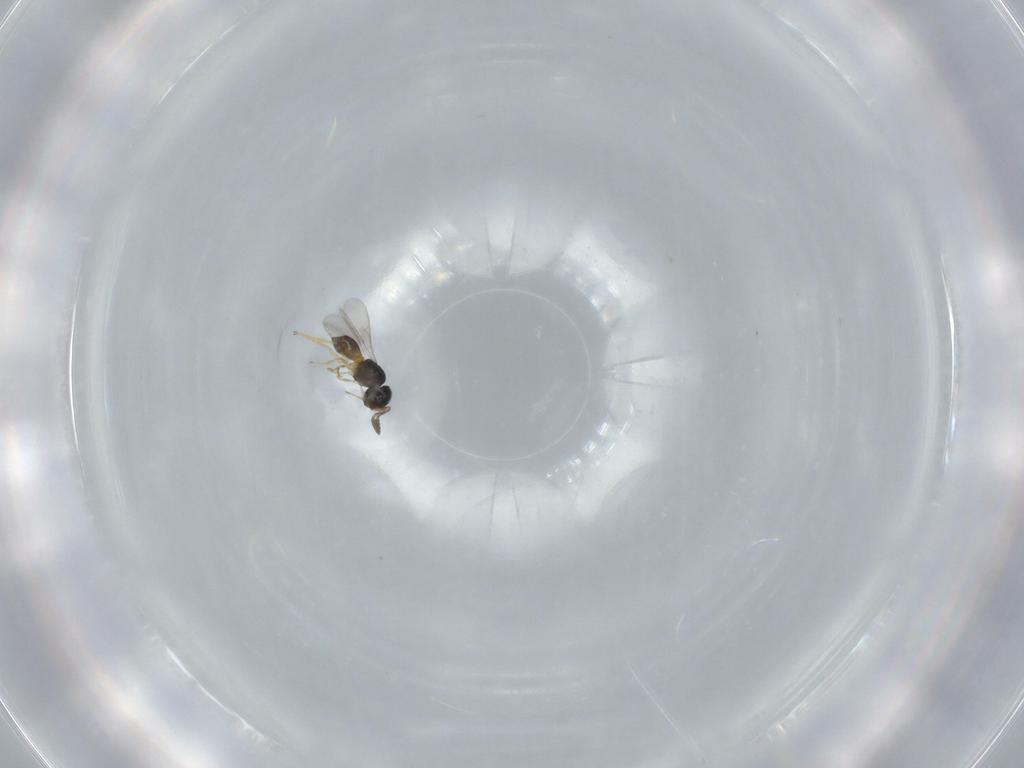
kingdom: Animalia
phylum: Arthropoda
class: Insecta
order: Hymenoptera
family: Scelionidae
